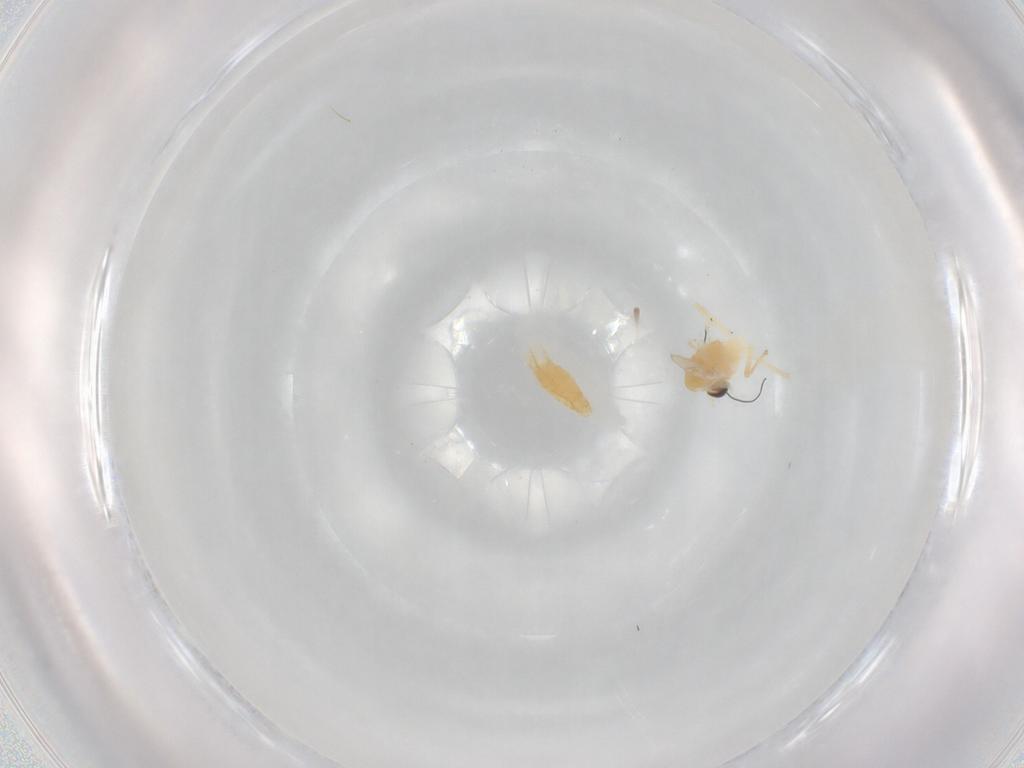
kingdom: Animalia
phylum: Arthropoda
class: Insecta
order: Diptera
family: Chironomidae
